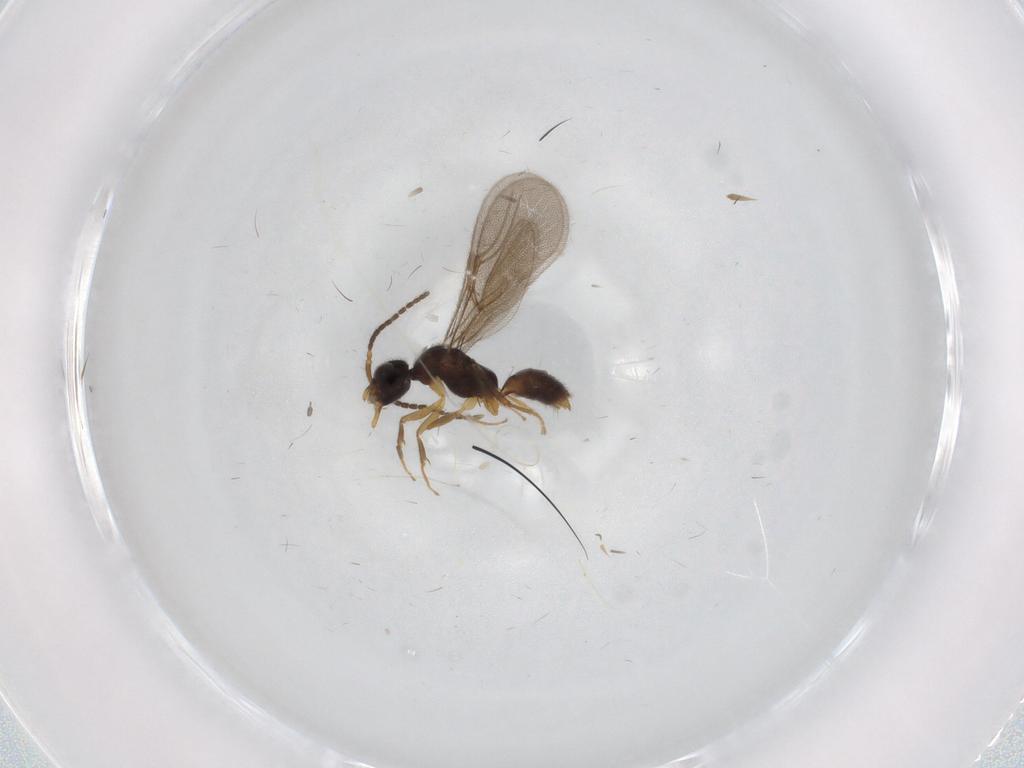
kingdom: Animalia
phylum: Arthropoda
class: Insecta
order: Hymenoptera
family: Bethylidae
